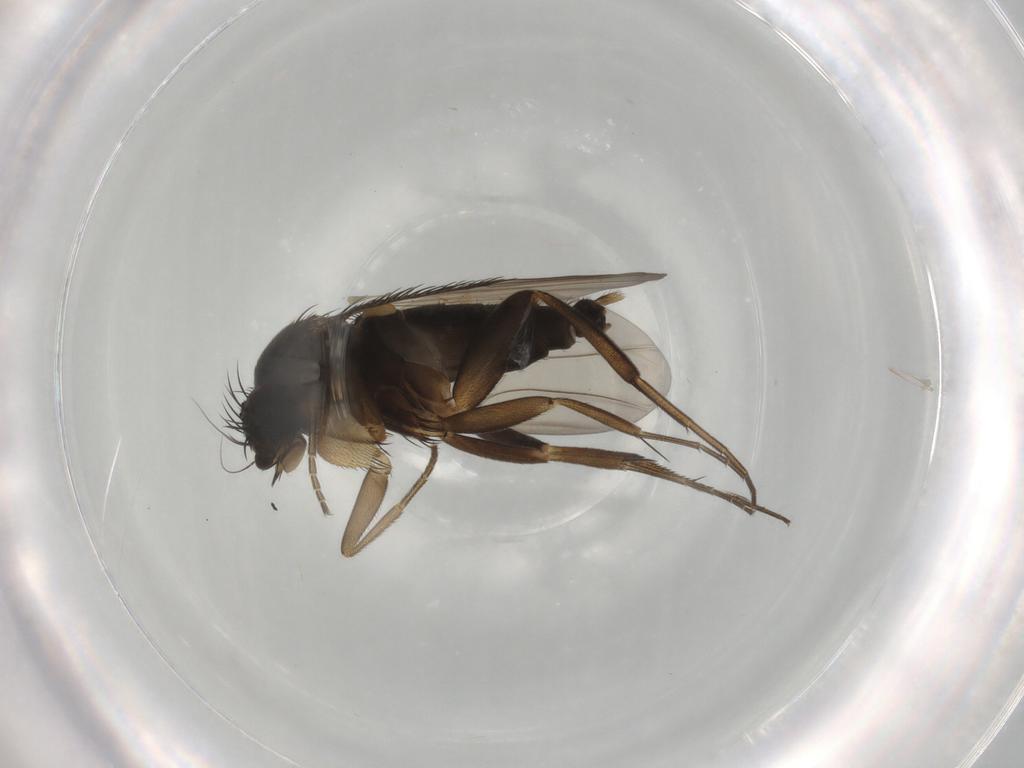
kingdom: Animalia
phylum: Arthropoda
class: Insecta
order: Diptera
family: Phoridae
